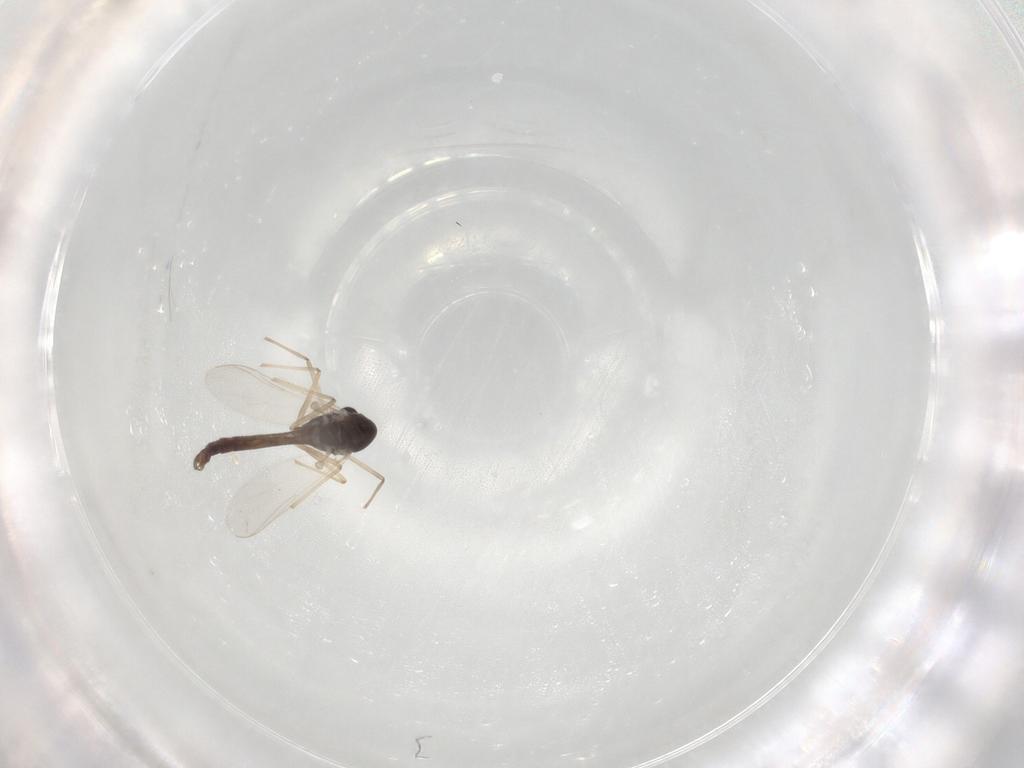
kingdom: Animalia
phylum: Arthropoda
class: Insecta
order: Diptera
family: Chironomidae
